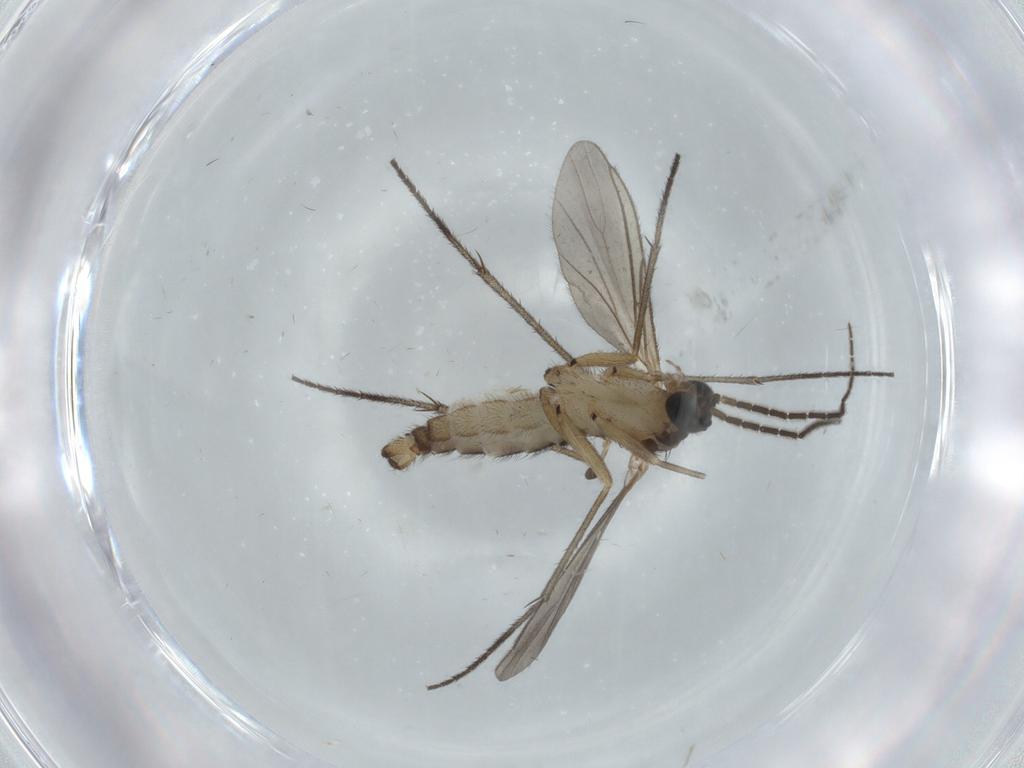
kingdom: Animalia
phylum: Arthropoda
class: Insecta
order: Diptera
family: Sciaridae
